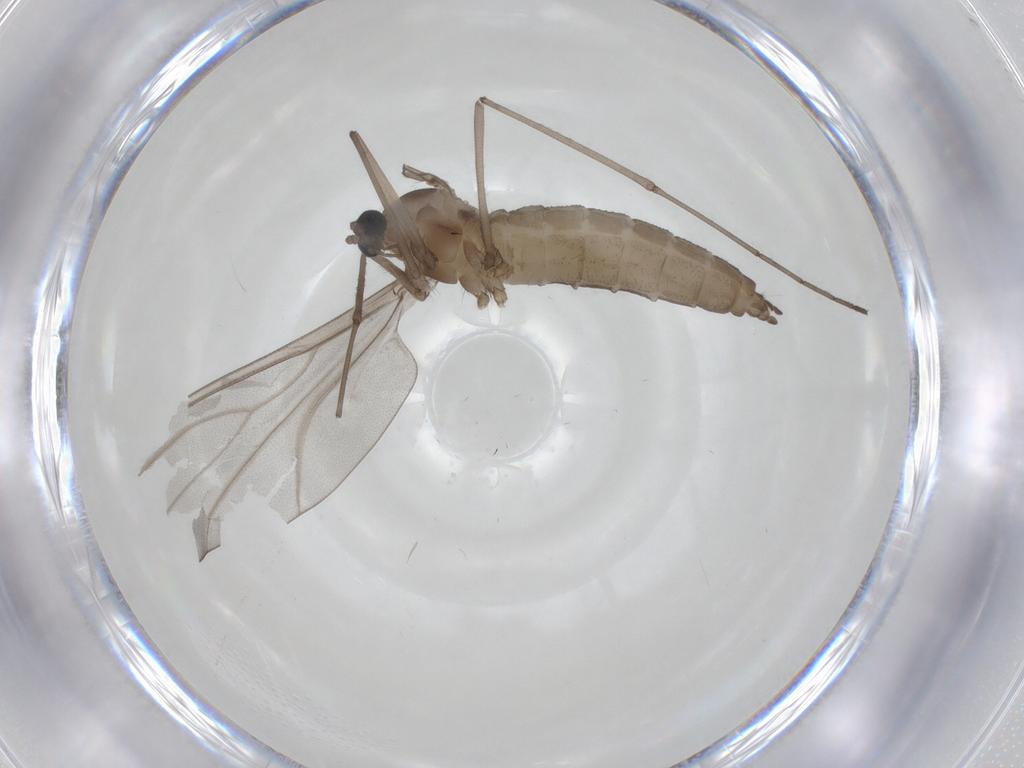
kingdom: Animalia
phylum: Arthropoda
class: Insecta
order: Diptera
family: Cecidomyiidae
